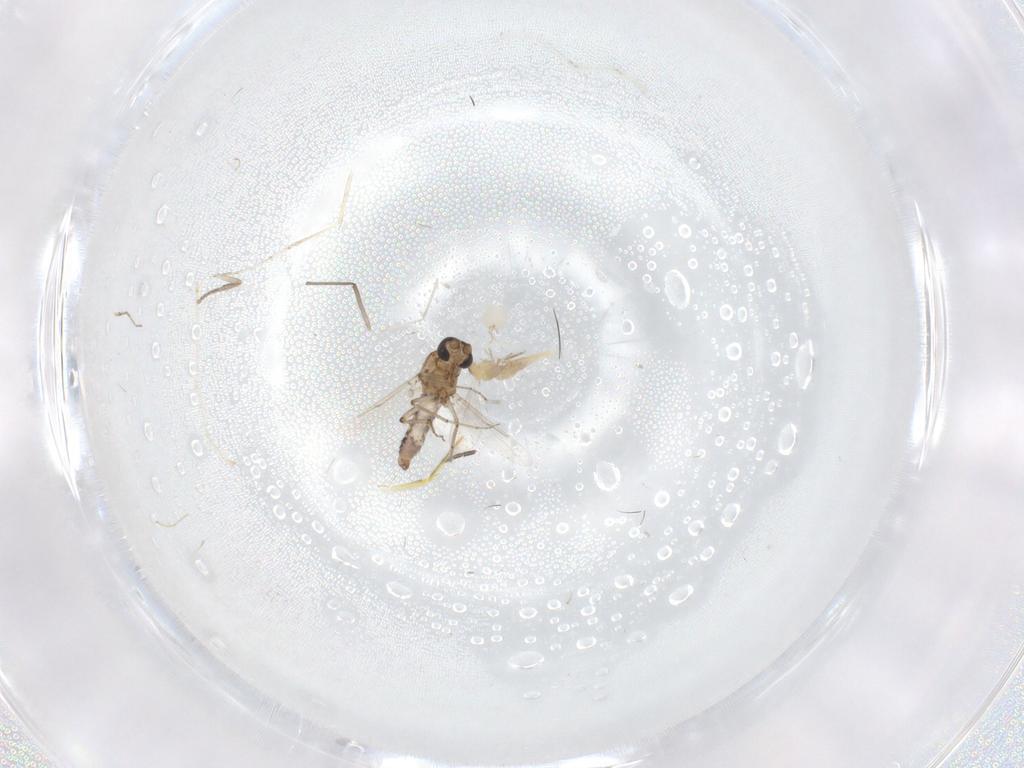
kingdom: Animalia
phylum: Arthropoda
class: Insecta
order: Diptera
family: Ceratopogonidae
